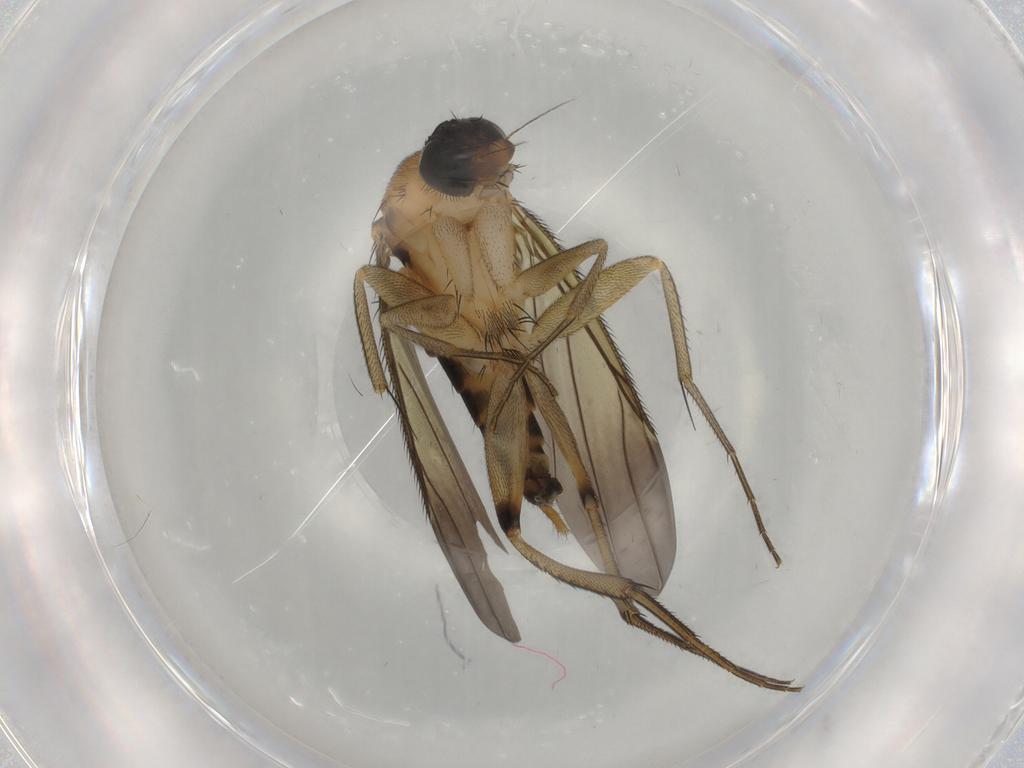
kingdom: Animalia
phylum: Arthropoda
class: Insecta
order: Diptera
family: Phoridae
